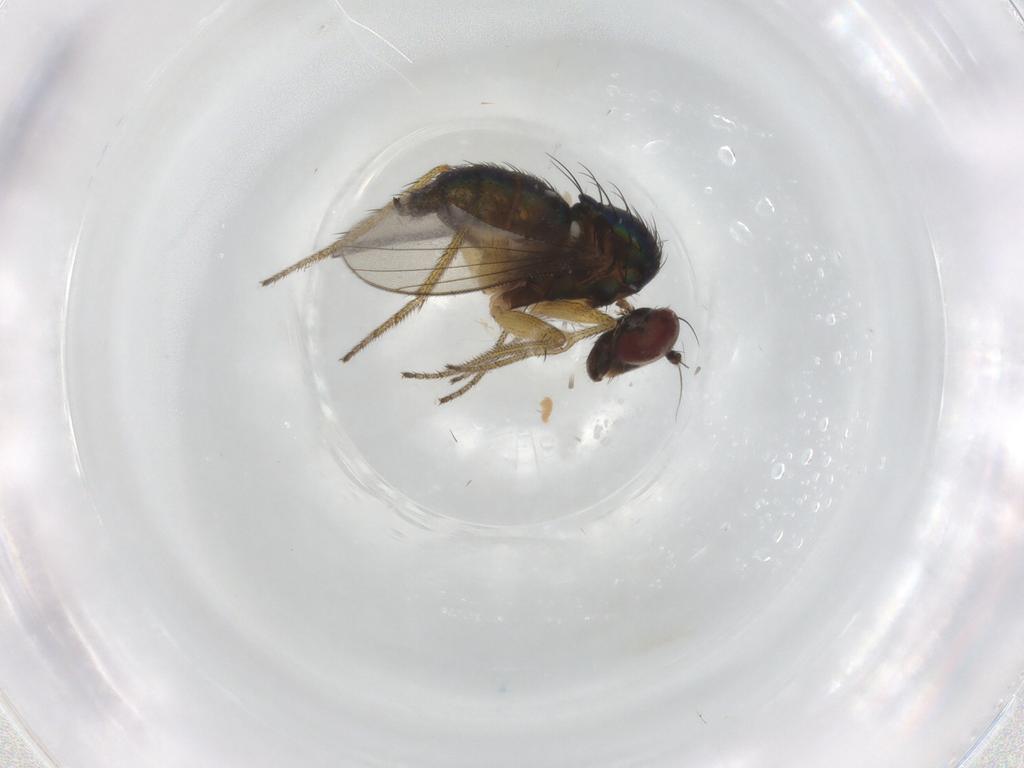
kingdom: Animalia
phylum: Arthropoda
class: Insecta
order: Diptera
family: Dolichopodidae
